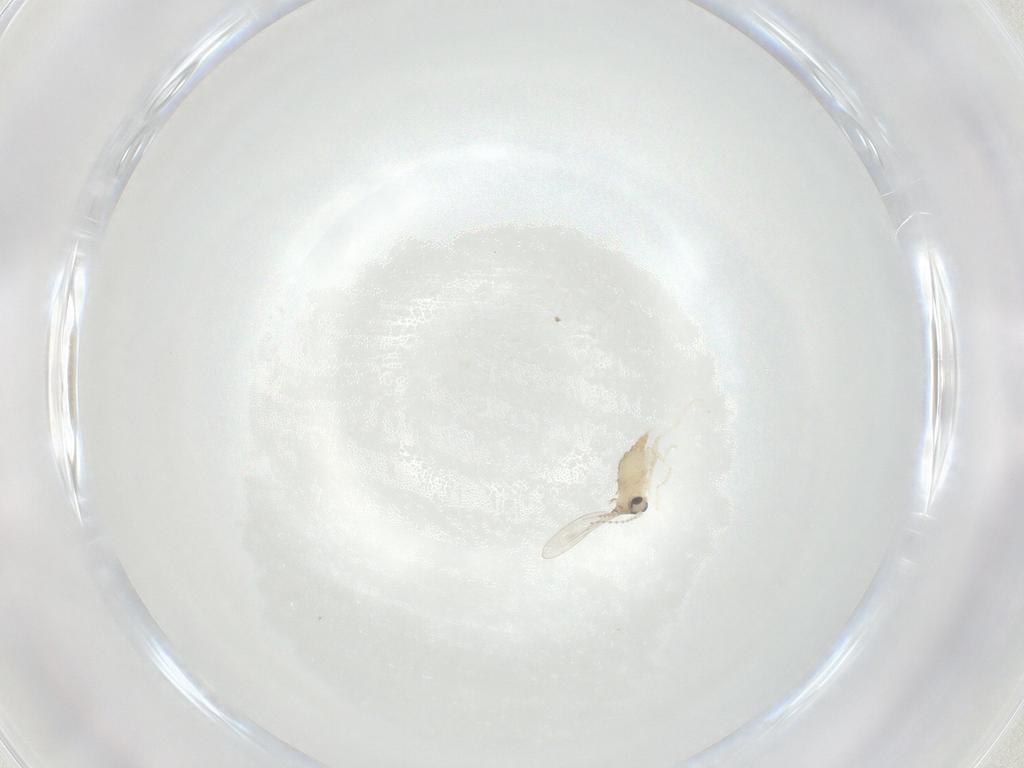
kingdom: Animalia
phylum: Arthropoda
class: Insecta
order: Diptera
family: Cecidomyiidae
